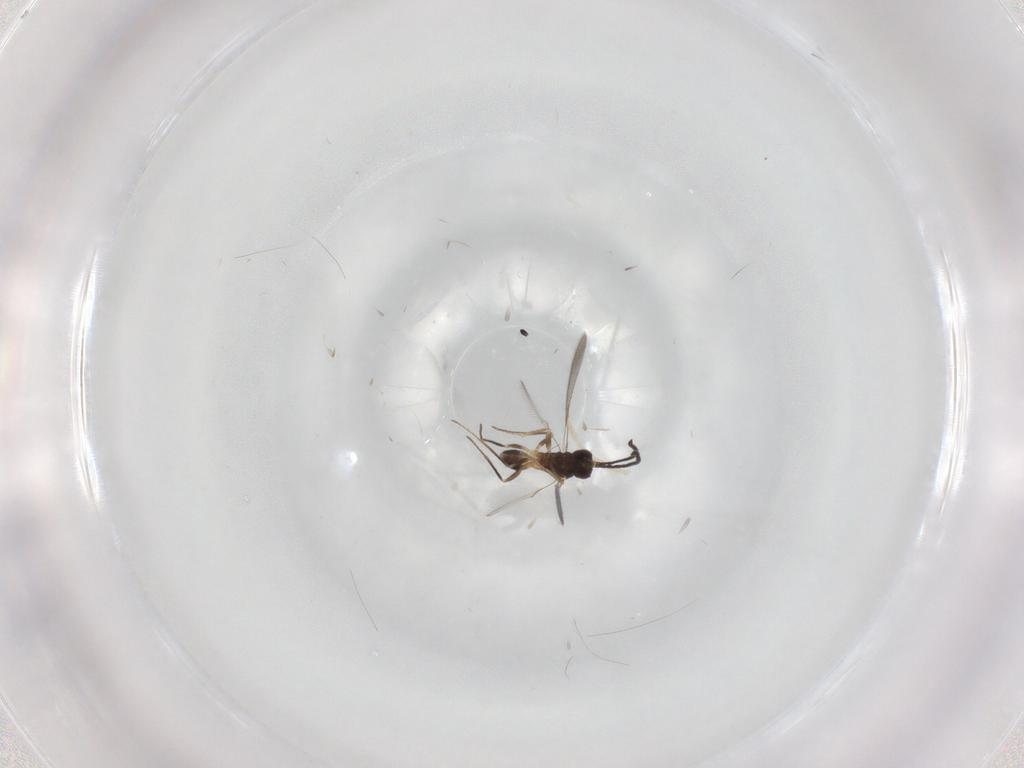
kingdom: Animalia
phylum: Arthropoda
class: Insecta
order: Hymenoptera
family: Mymaridae
